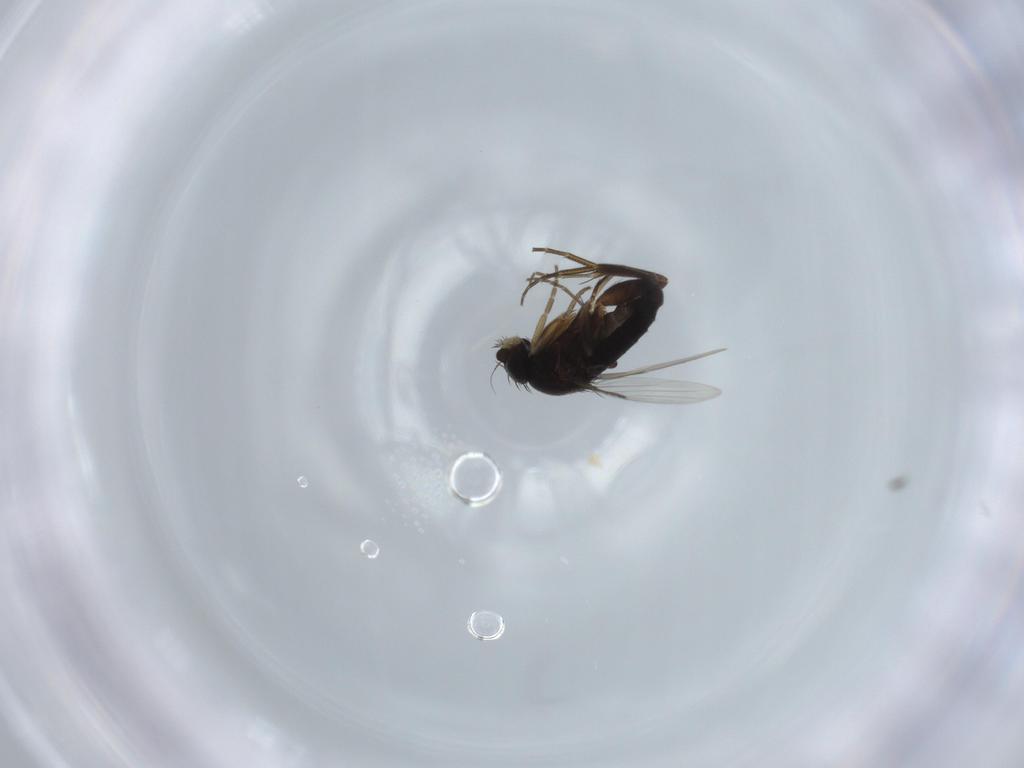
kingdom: Animalia
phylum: Arthropoda
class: Insecta
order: Diptera
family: Phoridae
